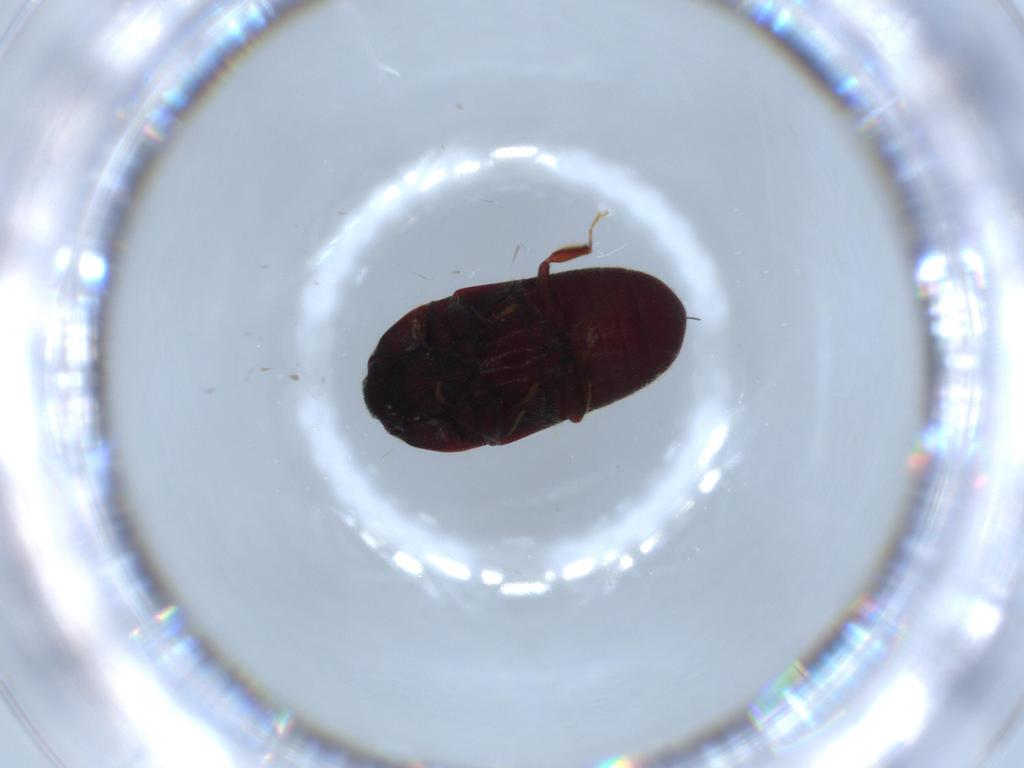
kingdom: Animalia
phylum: Arthropoda
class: Insecta
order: Coleoptera
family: Throscidae
